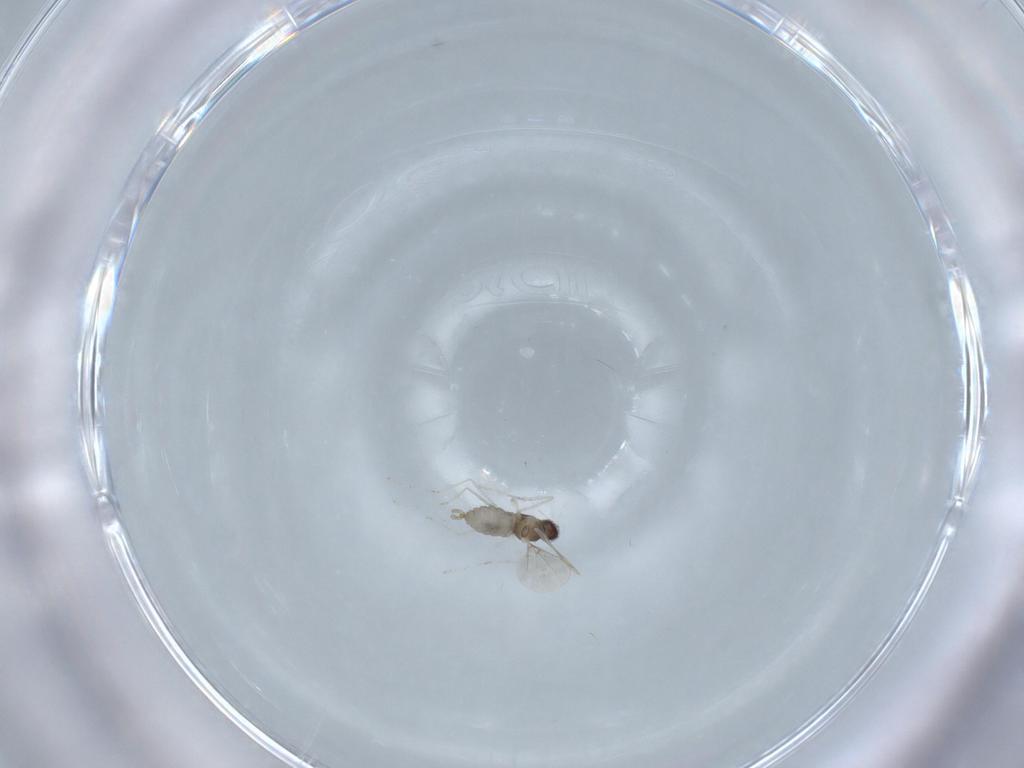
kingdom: Animalia
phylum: Arthropoda
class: Insecta
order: Diptera
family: Cecidomyiidae
